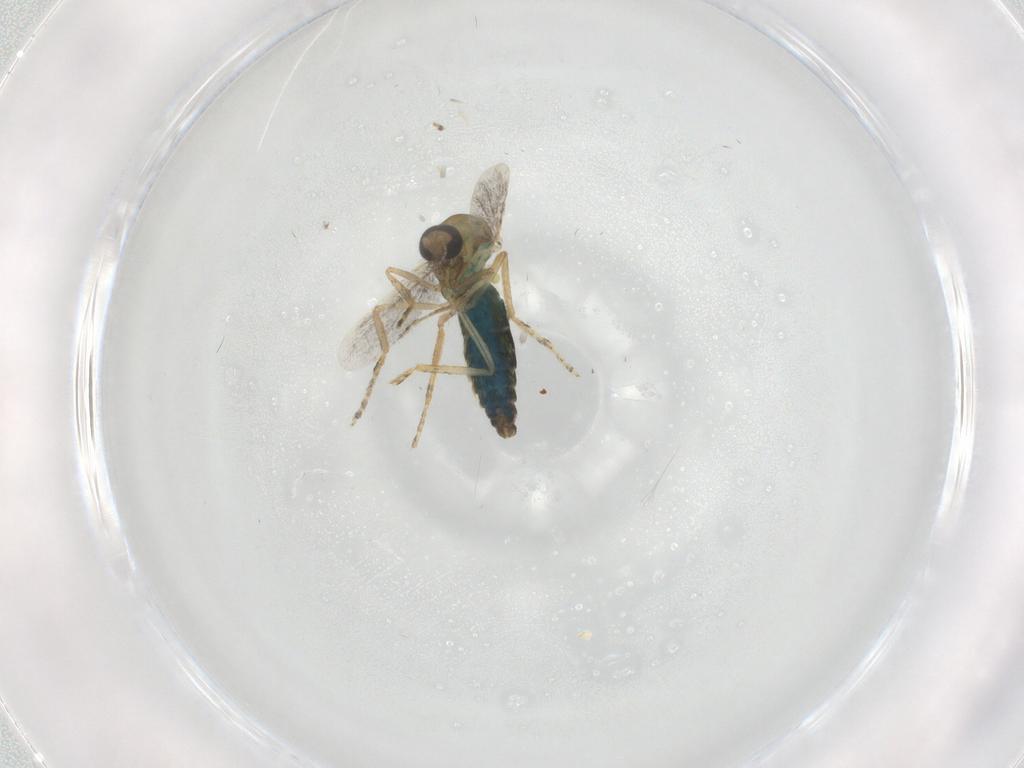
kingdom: Animalia
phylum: Arthropoda
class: Insecta
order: Diptera
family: Ceratopogonidae
